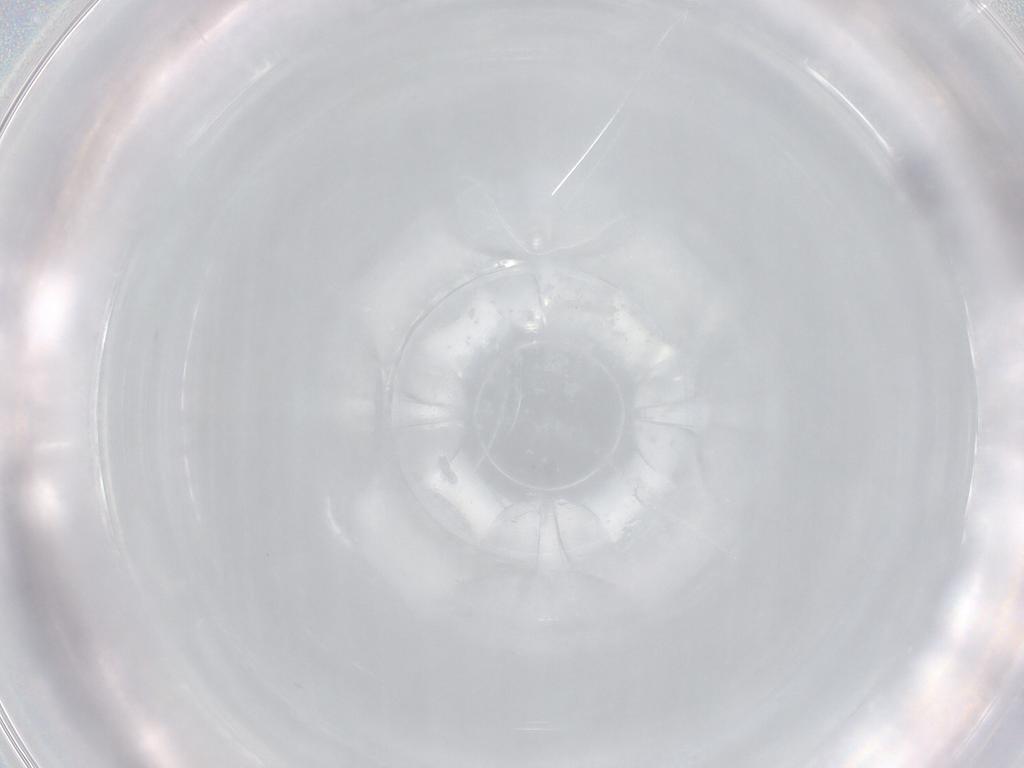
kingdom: Animalia
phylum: Arthropoda
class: Collembola
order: Entomobryomorpha
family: Entomobryidae
